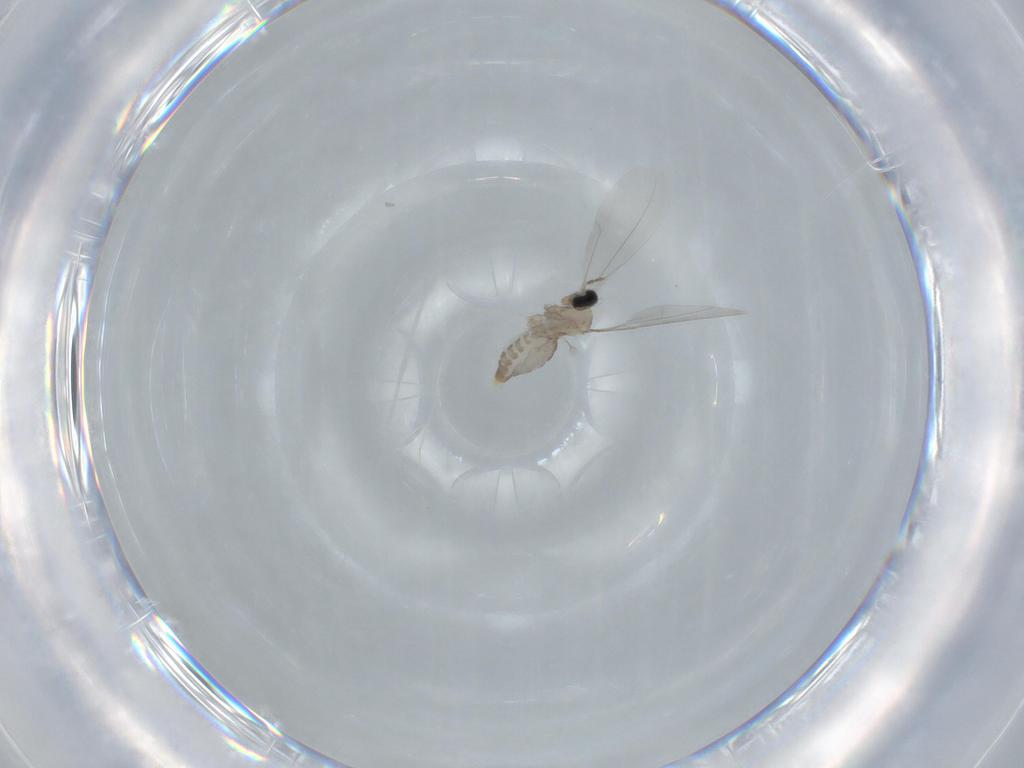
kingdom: Animalia
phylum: Arthropoda
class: Insecta
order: Diptera
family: Cecidomyiidae
